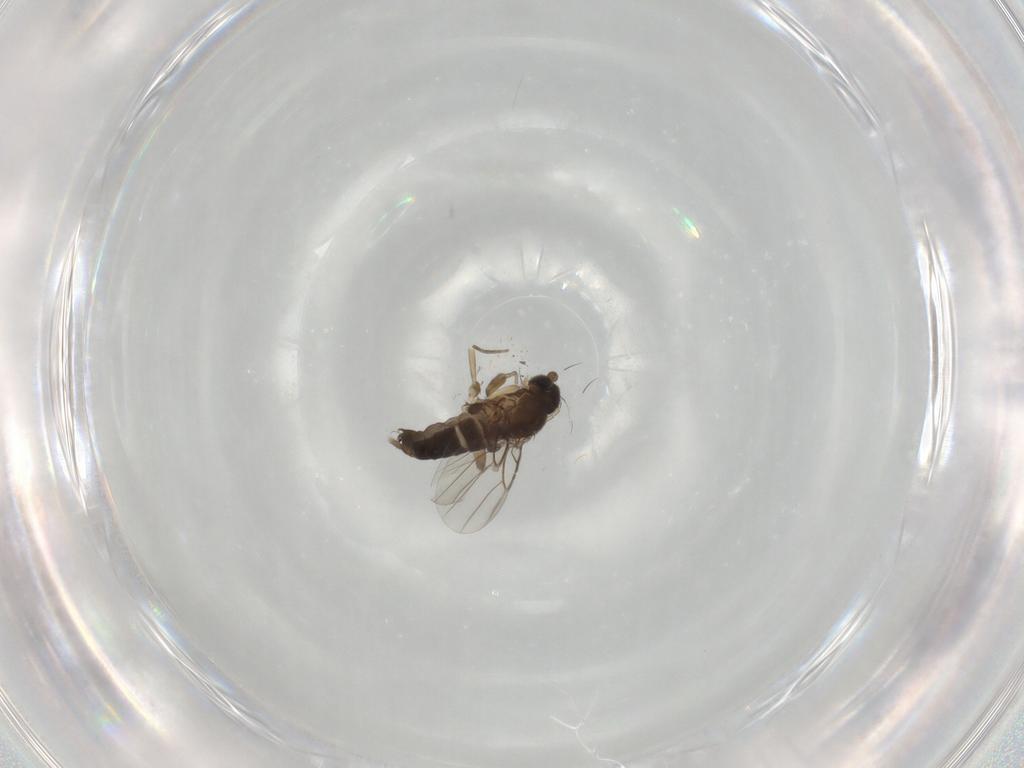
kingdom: Animalia
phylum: Arthropoda
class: Insecta
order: Diptera
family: Phoridae
